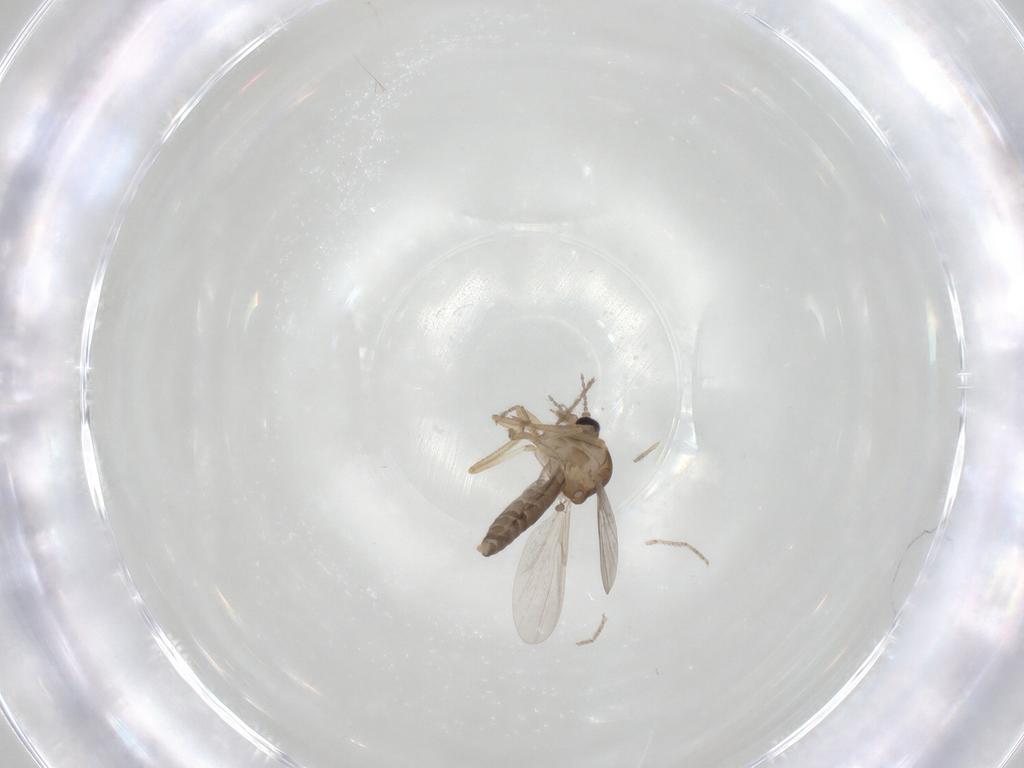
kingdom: Animalia
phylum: Arthropoda
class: Insecta
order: Diptera
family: Ceratopogonidae
